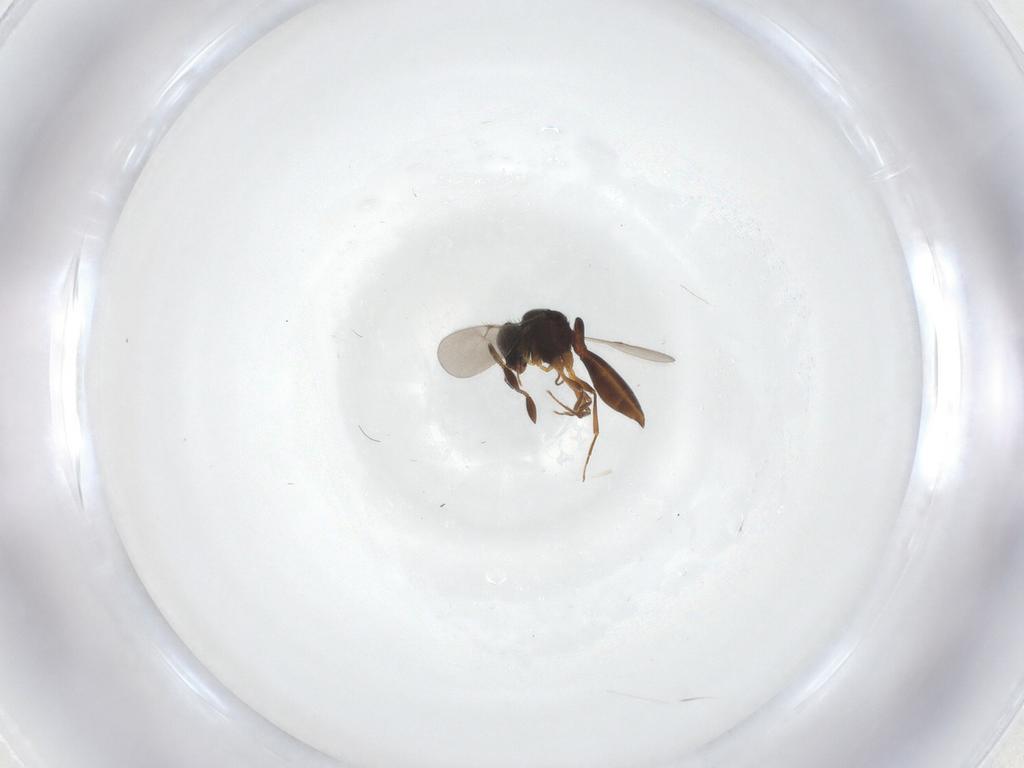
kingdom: Animalia
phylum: Arthropoda
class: Insecta
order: Hymenoptera
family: Scelionidae
